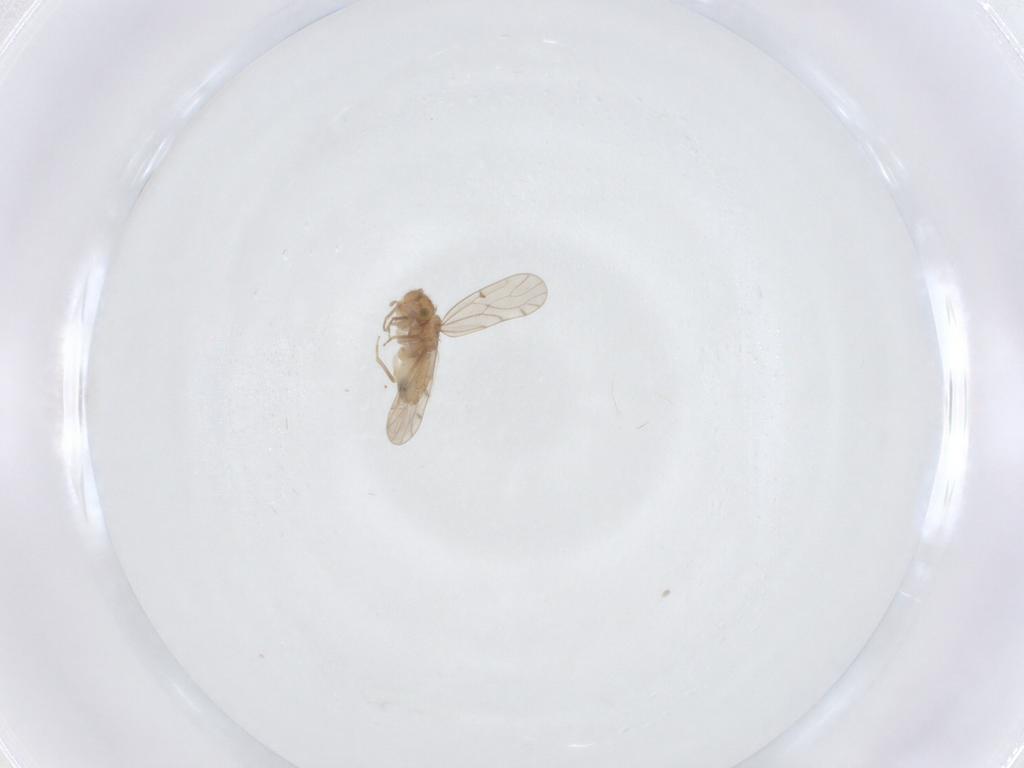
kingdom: Animalia
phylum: Arthropoda
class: Insecta
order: Psocodea
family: Ectopsocidae
